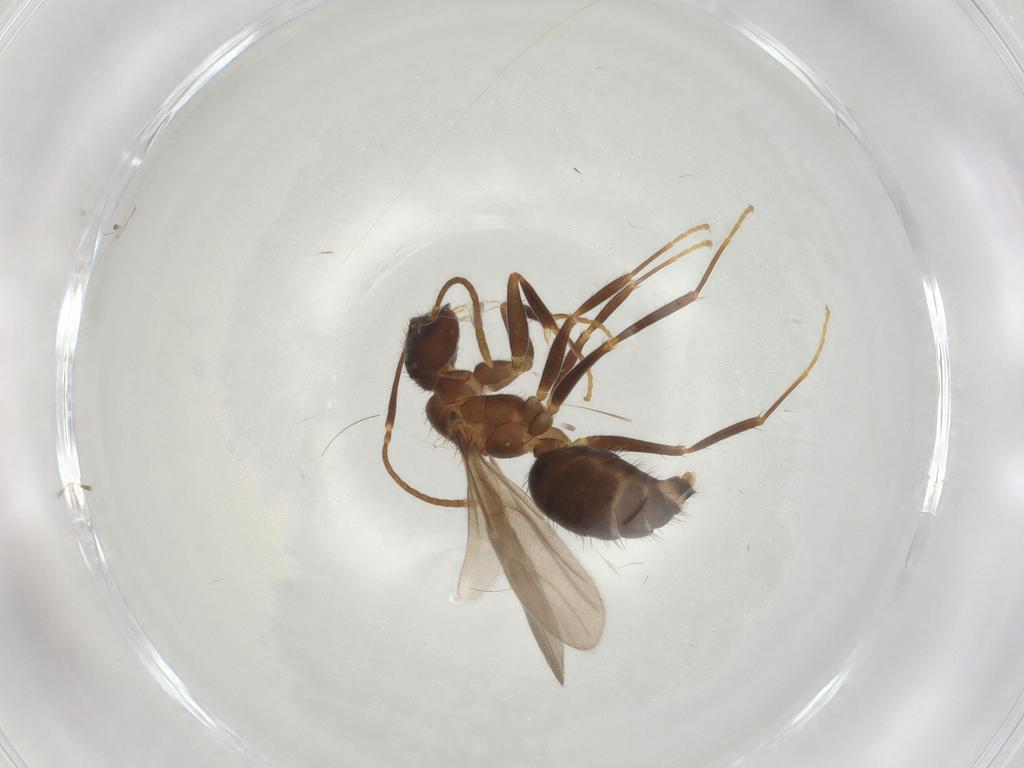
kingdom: Animalia
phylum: Arthropoda
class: Insecta
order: Hymenoptera
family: Formicidae
